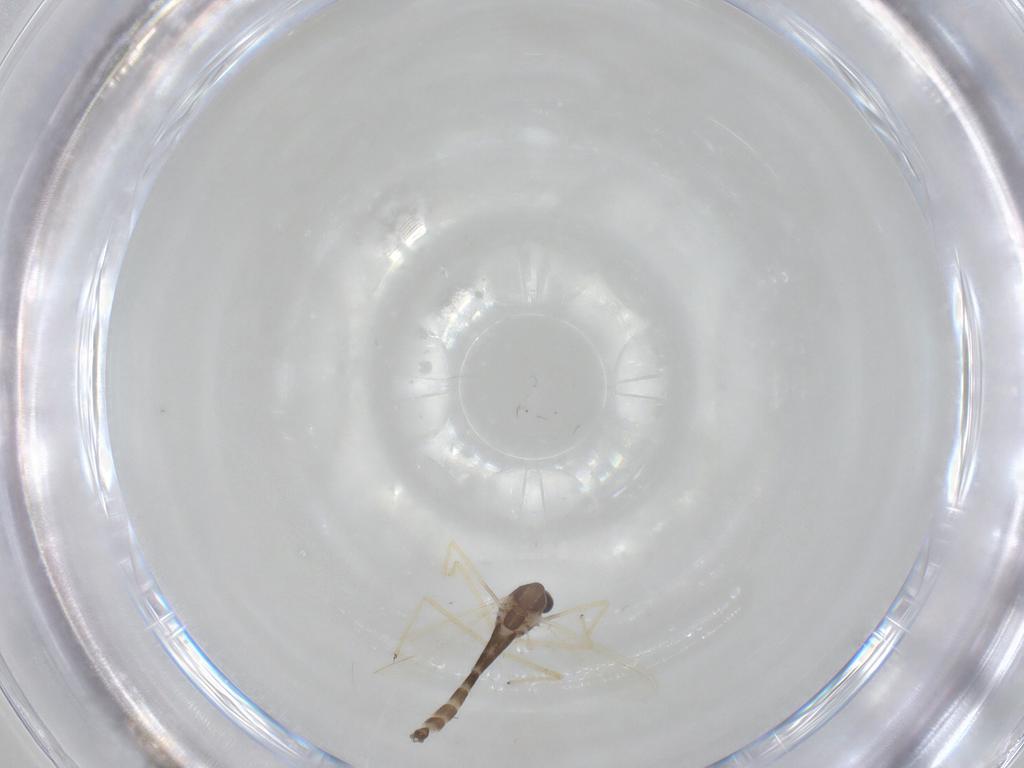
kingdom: Animalia
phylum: Arthropoda
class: Insecta
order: Diptera
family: Chironomidae
